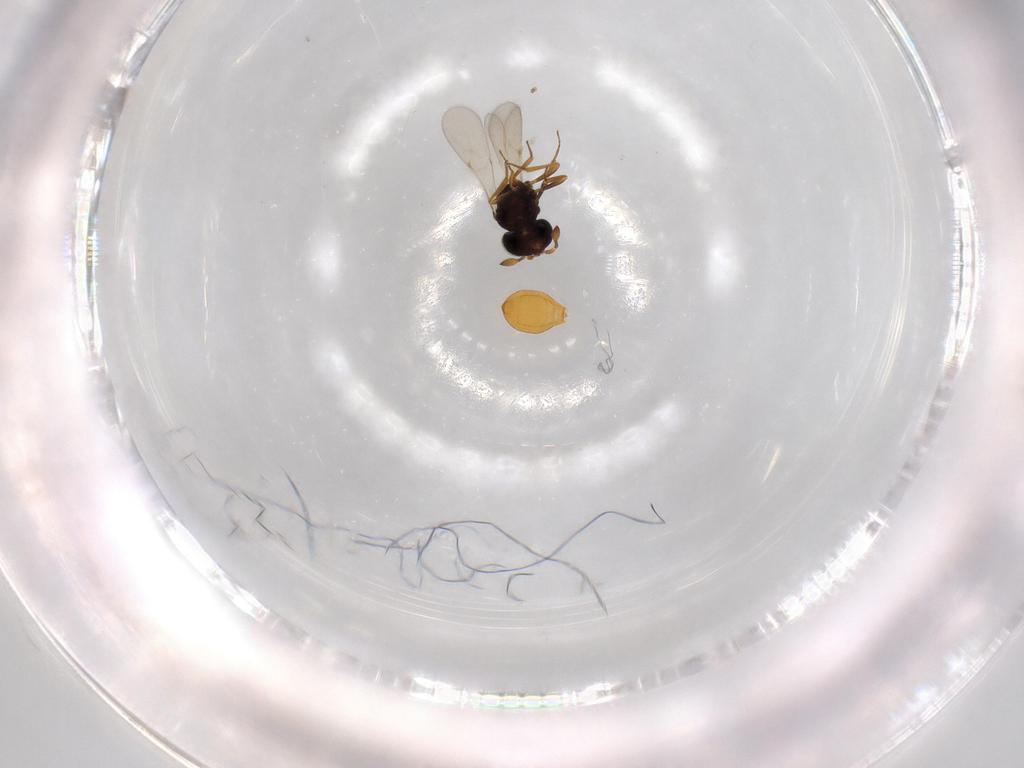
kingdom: Animalia
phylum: Arthropoda
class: Insecta
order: Hymenoptera
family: Scelionidae
